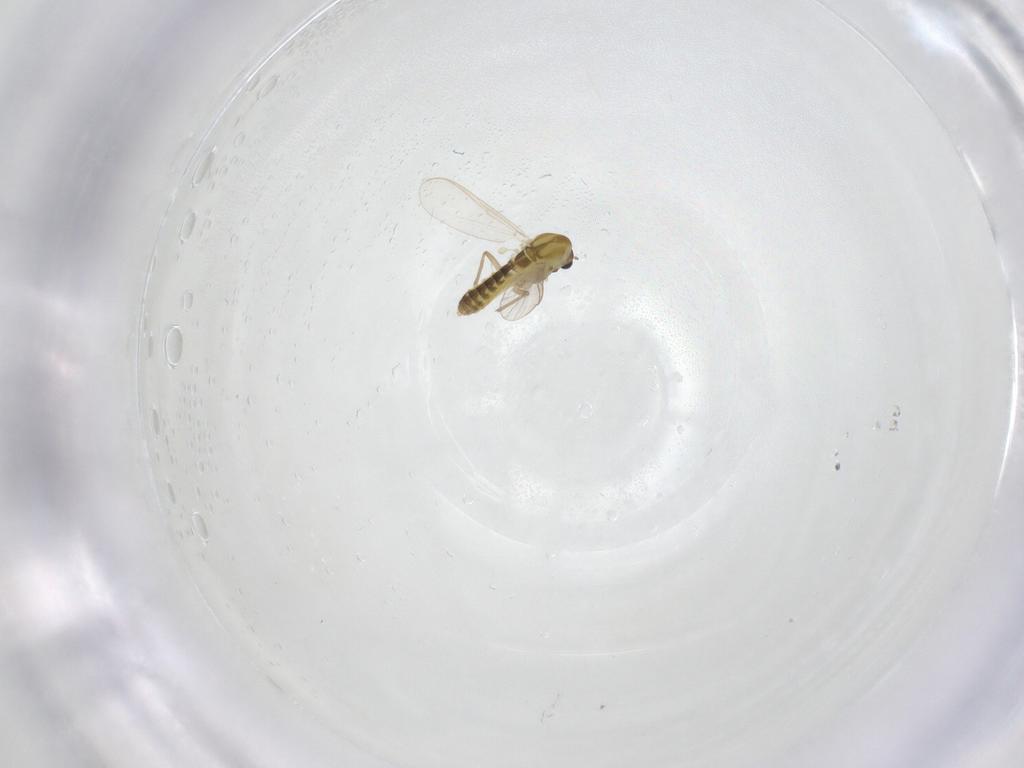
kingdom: Animalia
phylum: Arthropoda
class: Insecta
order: Diptera
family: Chironomidae
